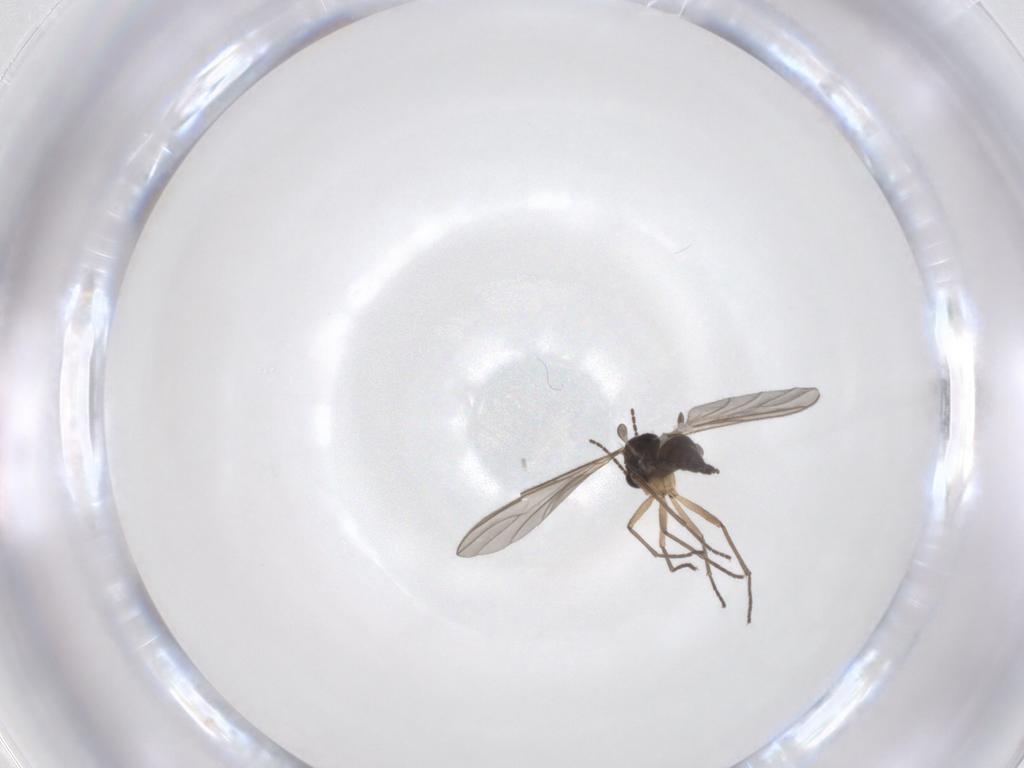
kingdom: Animalia
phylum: Arthropoda
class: Insecta
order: Diptera
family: Sciaridae
